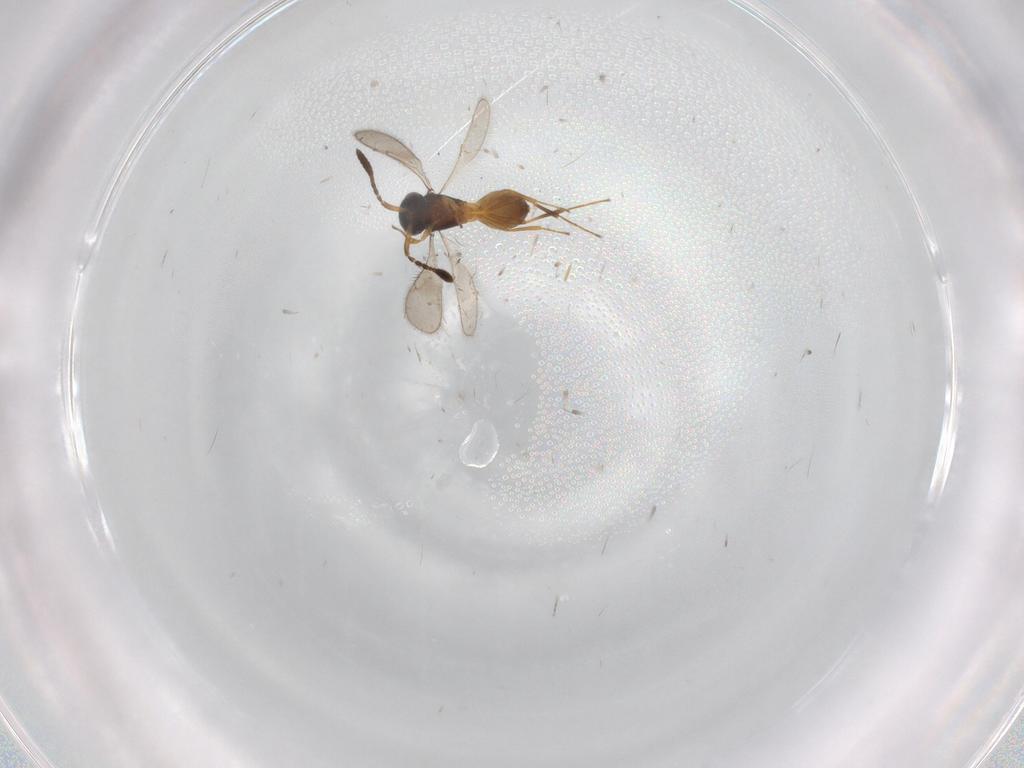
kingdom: Animalia
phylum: Arthropoda
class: Insecta
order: Hymenoptera
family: Scelionidae
